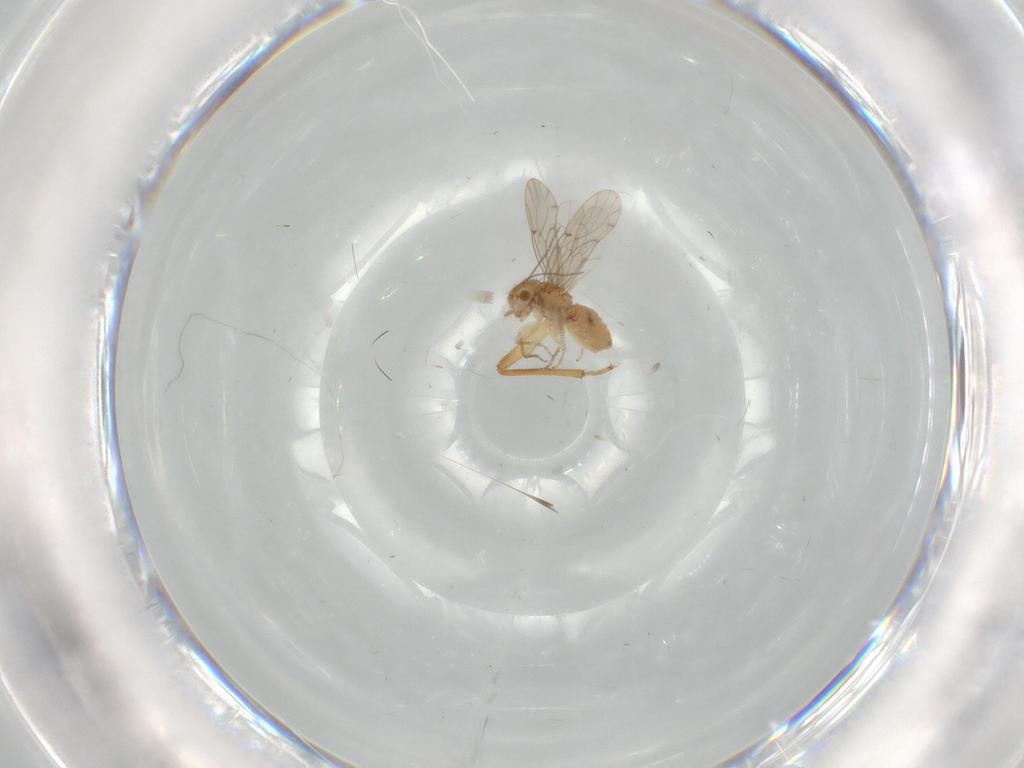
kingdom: Animalia
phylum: Arthropoda
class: Insecta
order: Psocodea
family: Ectopsocidae
